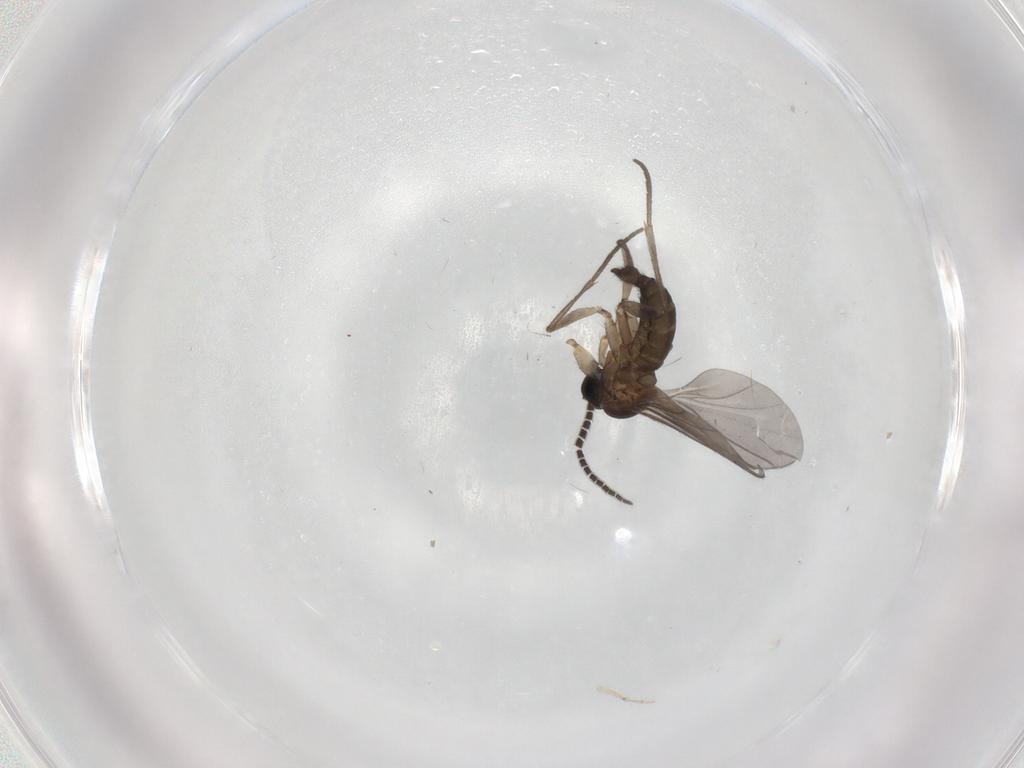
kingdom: Animalia
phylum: Arthropoda
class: Insecta
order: Diptera
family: Sciaridae
